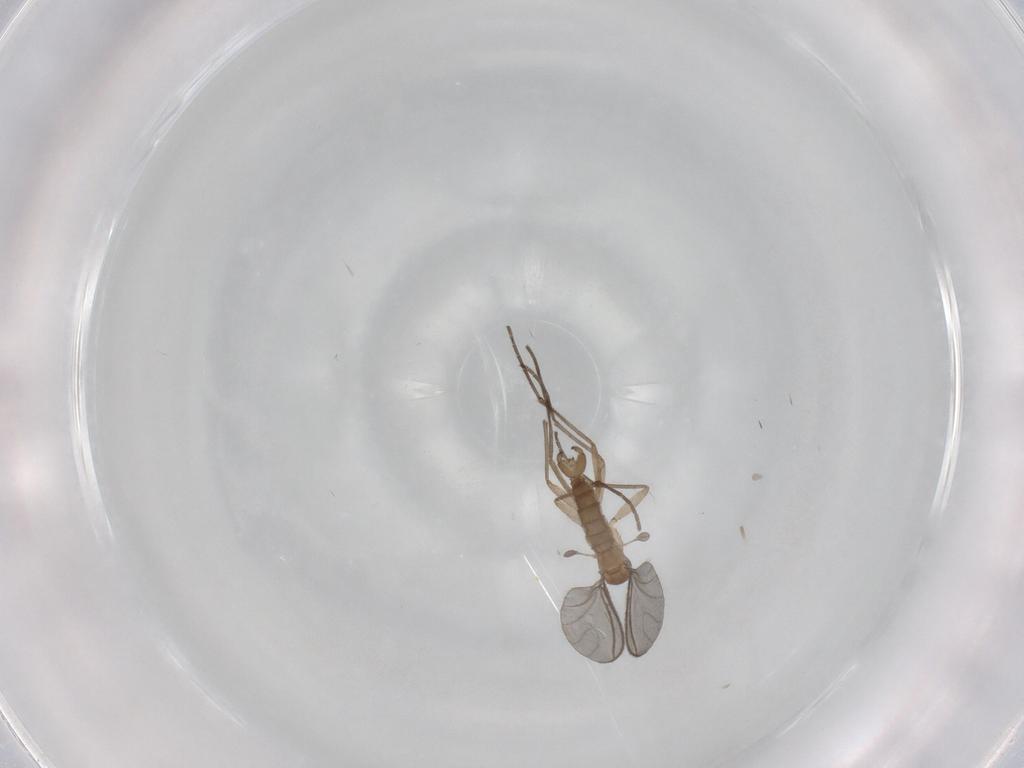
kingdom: Animalia
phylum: Arthropoda
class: Insecta
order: Diptera
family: Sciaridae
